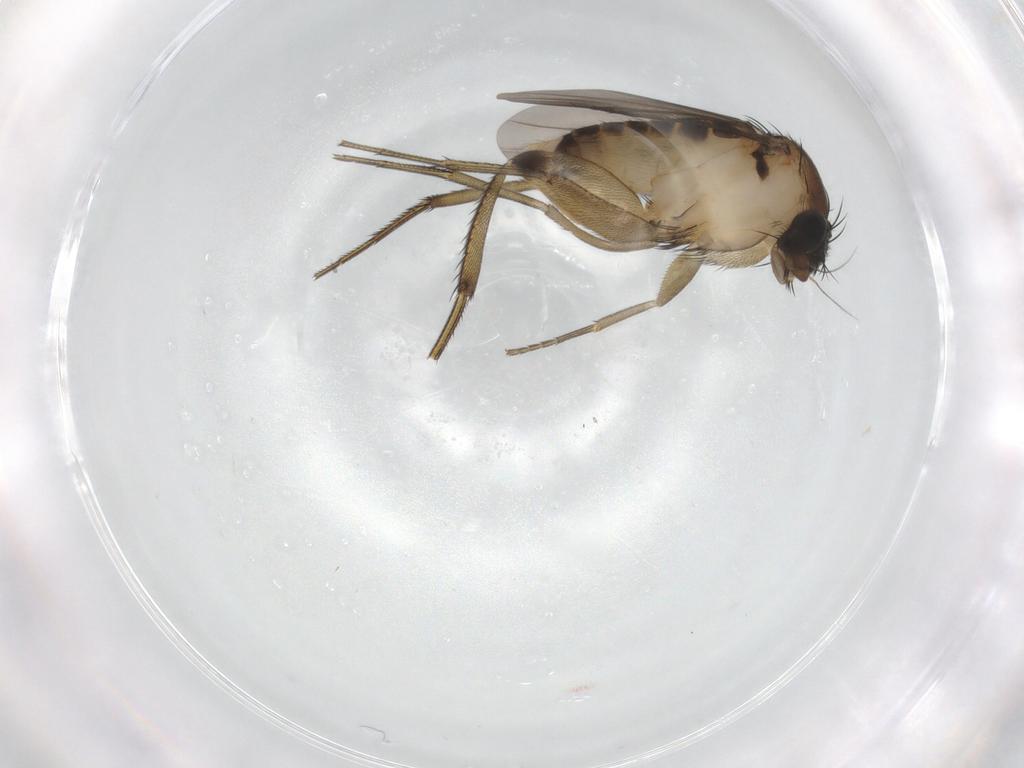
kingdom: Animalia
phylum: Arthropoda
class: Insecta
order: Diptera
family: Phoridae
